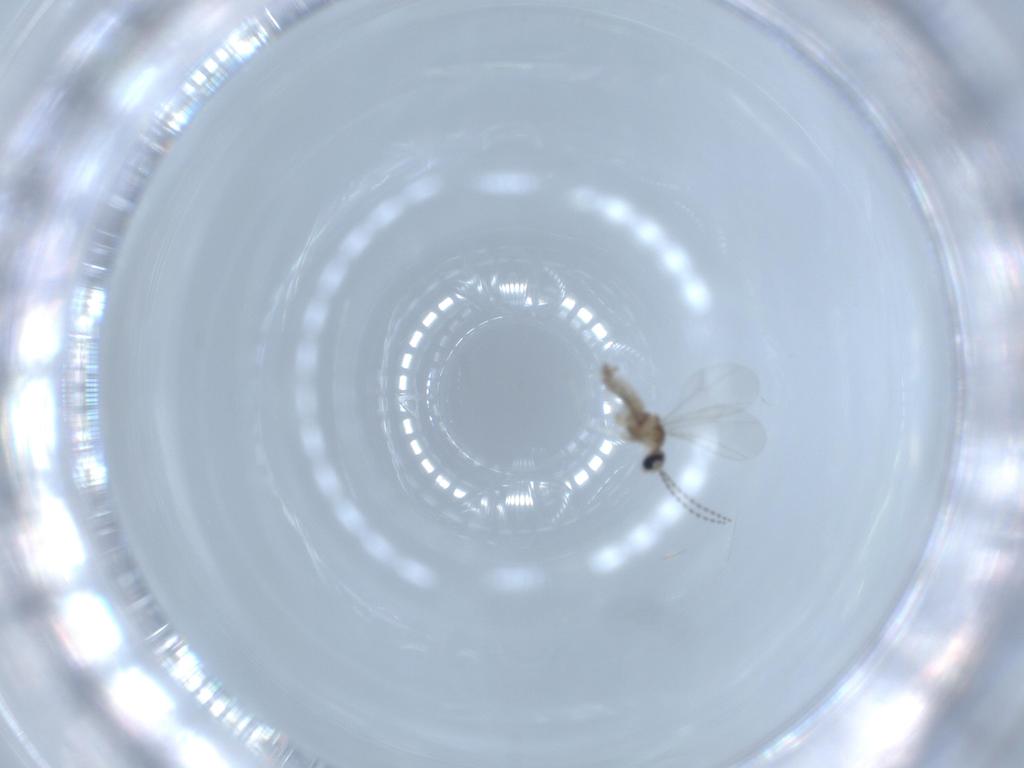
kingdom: Animalia
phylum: Arthropoda
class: Insecta
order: Diptera
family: Cecidomyiidae
